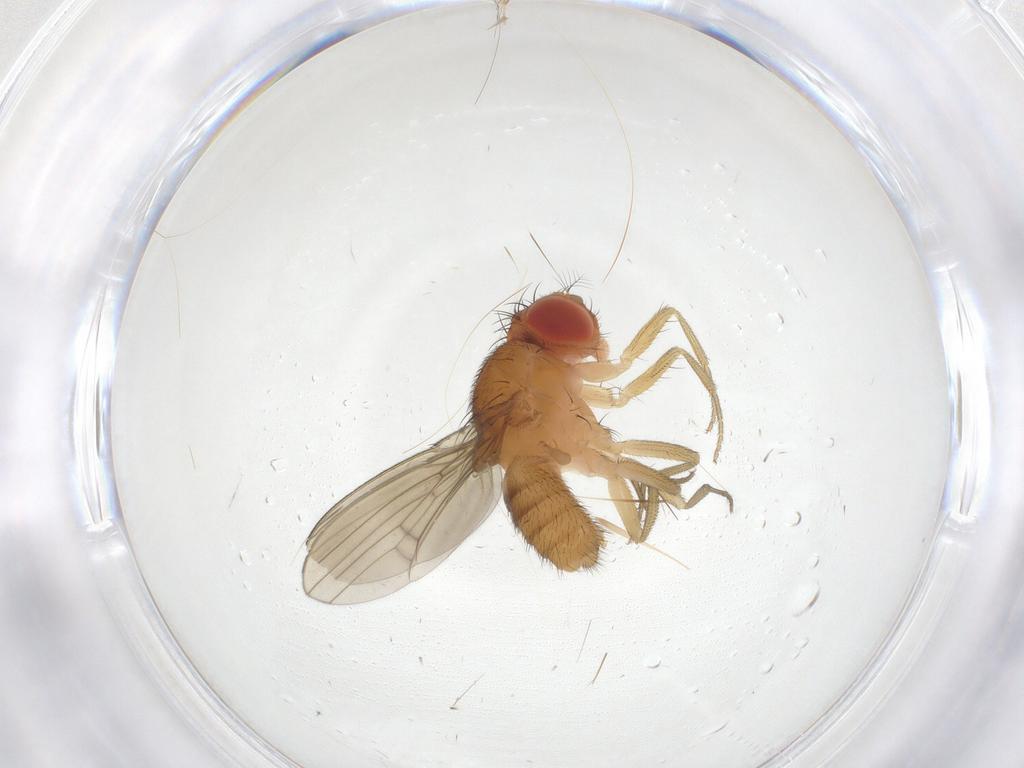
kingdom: Animalia
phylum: Arthropoda
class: Insecta
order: Diptera
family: Drosophilidae
